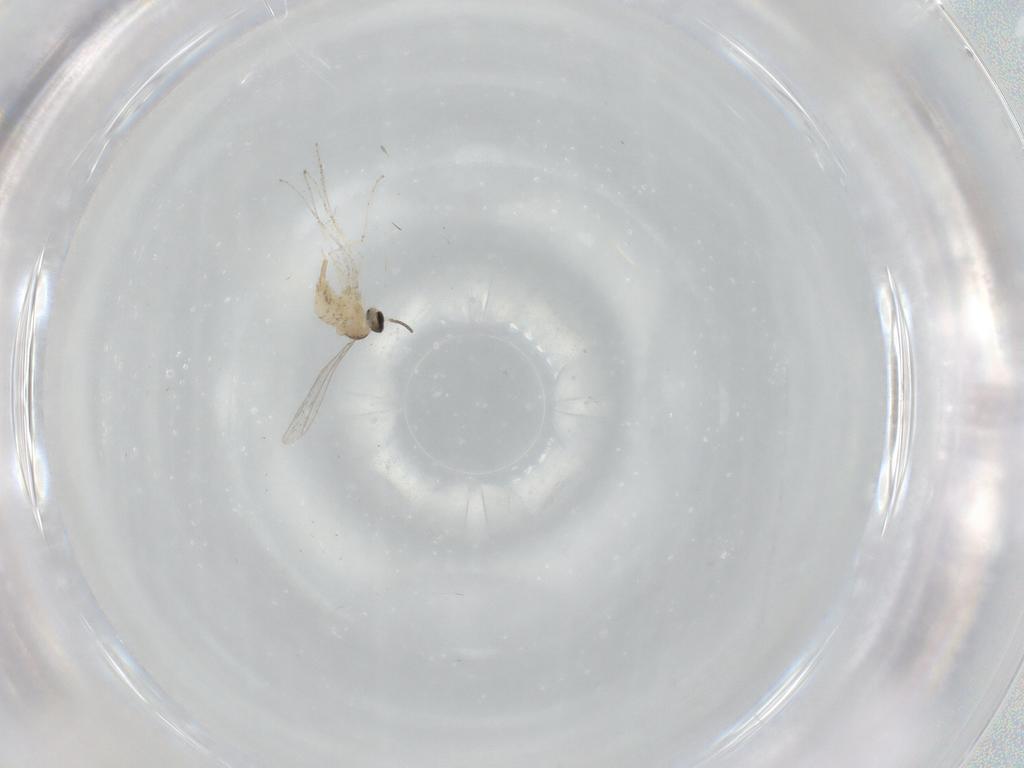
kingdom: Animalia
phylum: Arthropoda
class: Insecta
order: Diptera
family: Cecidomyiidae
